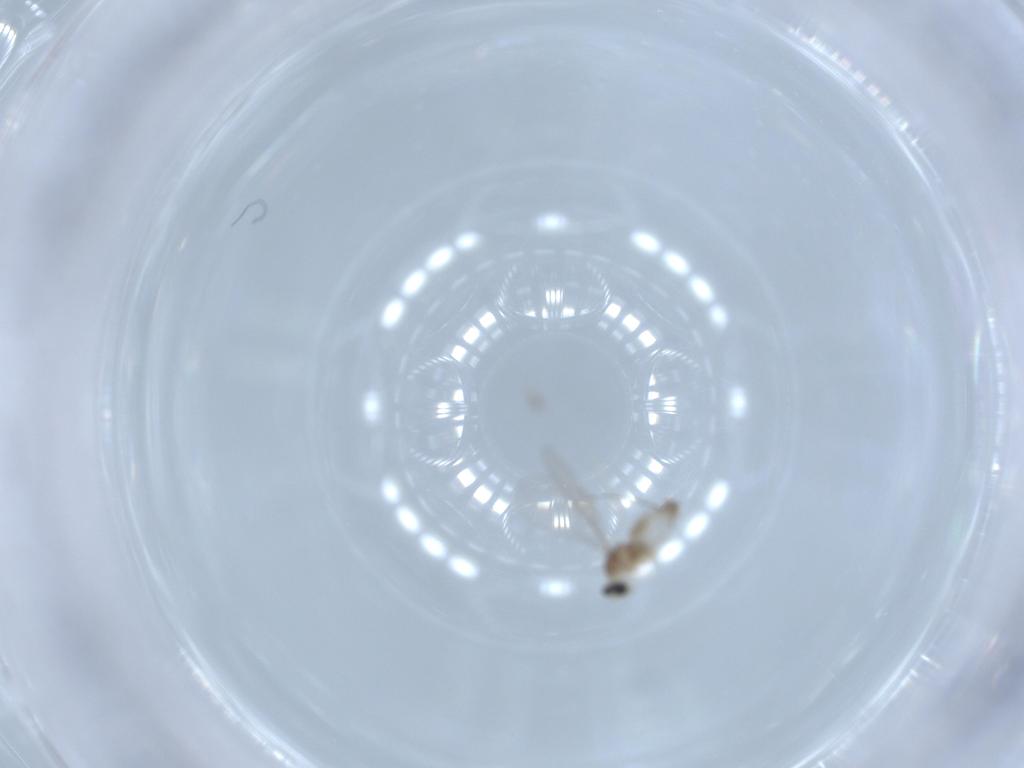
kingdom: Animalia
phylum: Arthropoda
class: Insecta
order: Diptera
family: Cecidomyiidae
